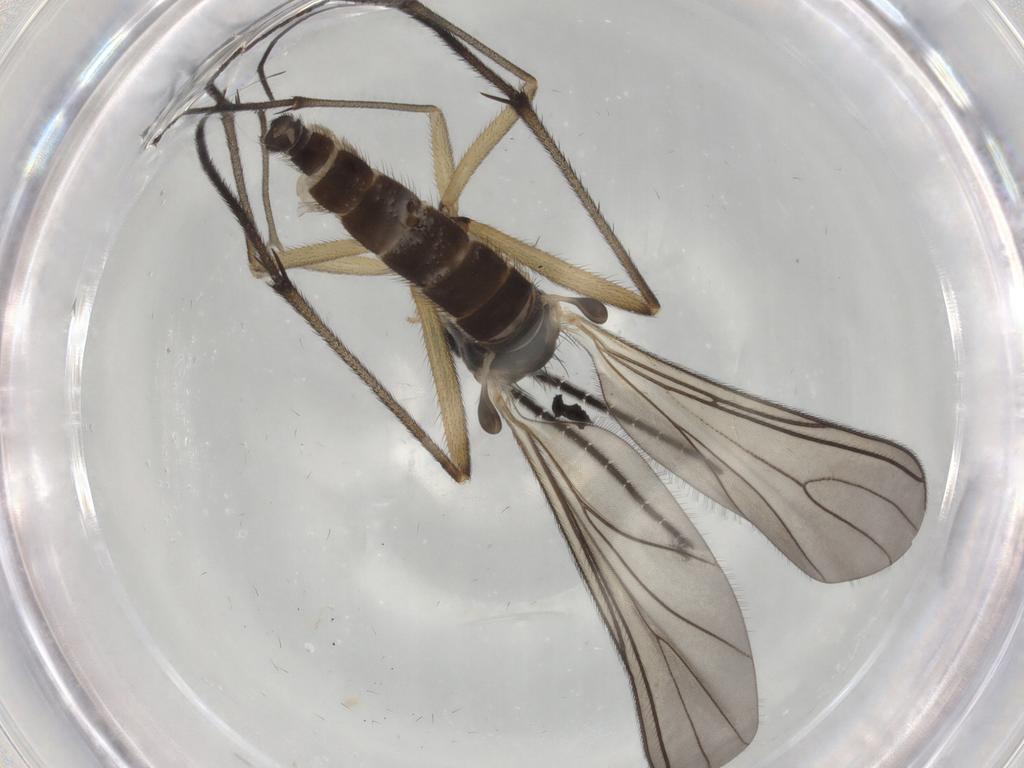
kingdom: Animalia
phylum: Arthropoda
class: Insecta
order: Diptera
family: Sciaridae
